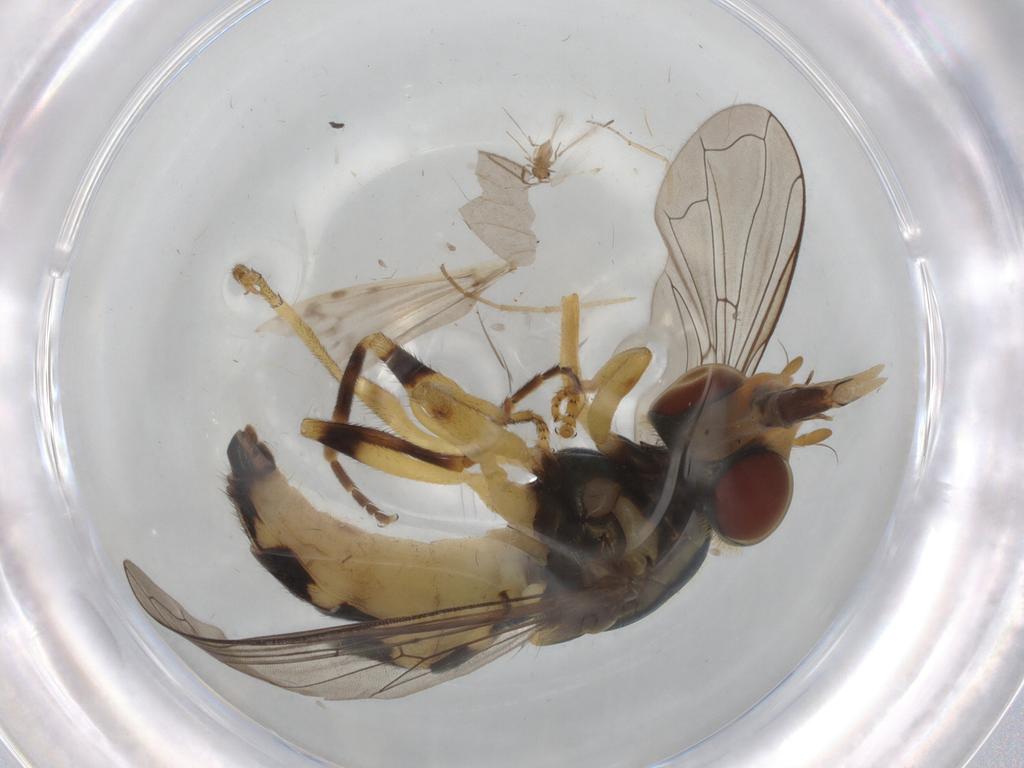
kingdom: Animalia
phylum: Arthropoda
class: Insecta
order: Diptera
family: Syrphidae
